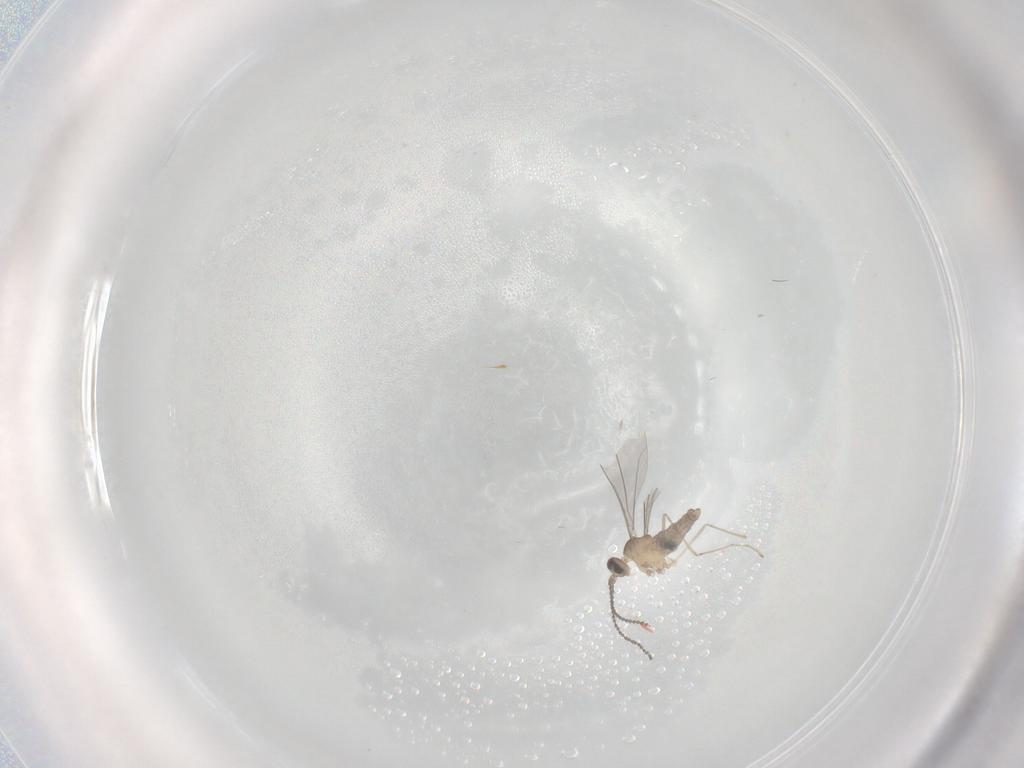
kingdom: Animalia
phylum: Arthropoda
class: Insecta
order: Diptera
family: Cecidomyiidae
